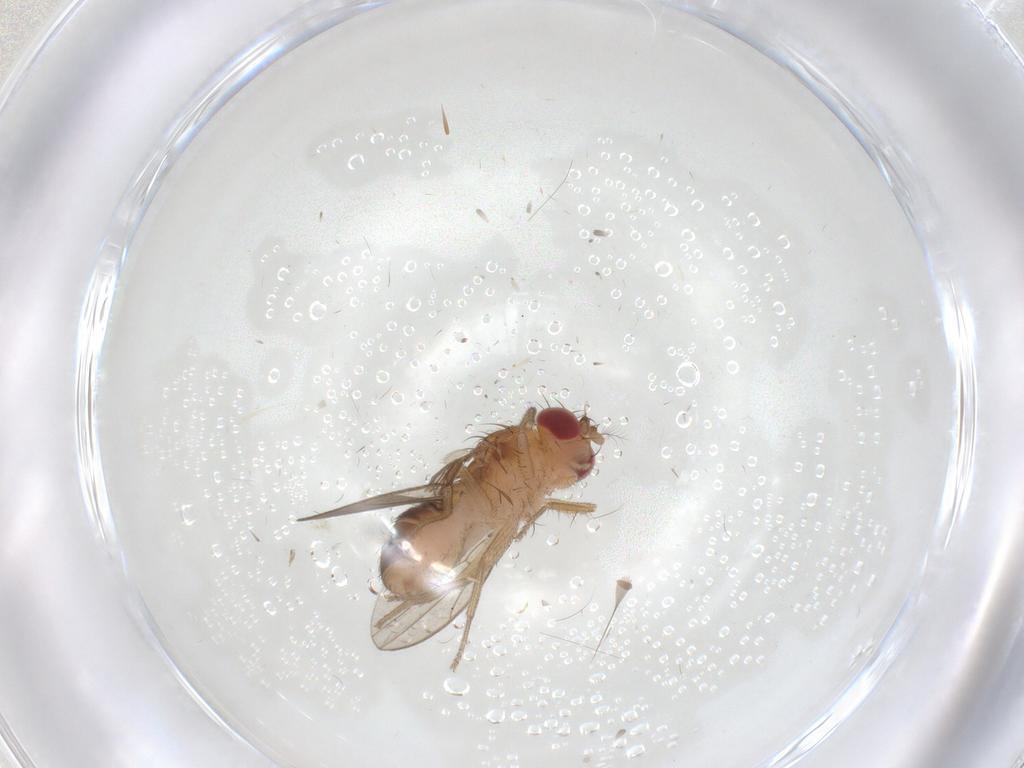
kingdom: Animalia
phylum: Arthropoda
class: Insecta
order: Diptera
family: Drosophilidae
